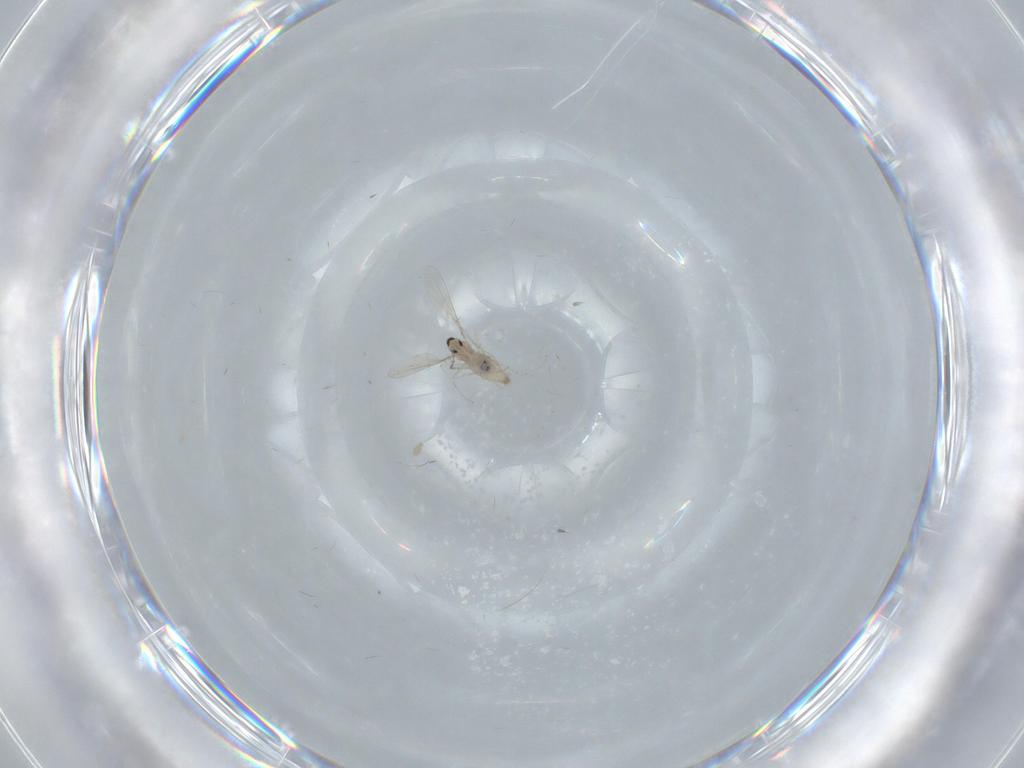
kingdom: Animalia
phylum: Arthropoda
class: Insecta
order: Diptera
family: Cecidomyiidae
